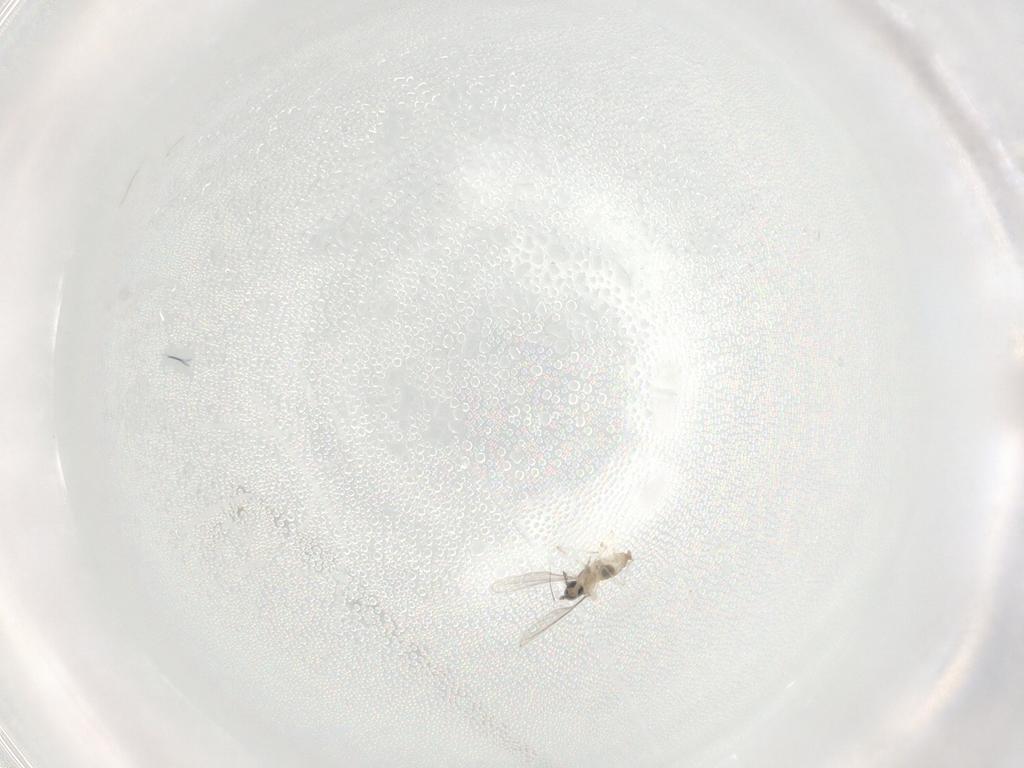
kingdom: Animalia
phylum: Arthropoda
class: Insecta
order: Diptera
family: Cecidomyiidae
